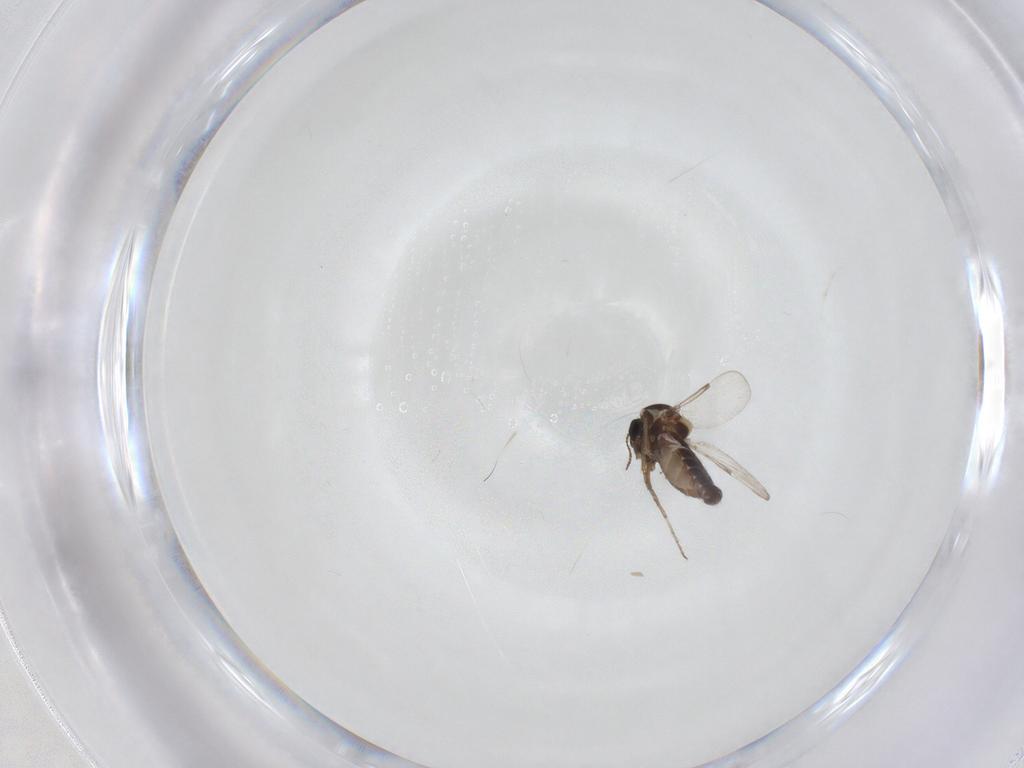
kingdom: Animalia
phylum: Arthropoda
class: Insecta
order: Diptera
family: Ceratopogonidae
